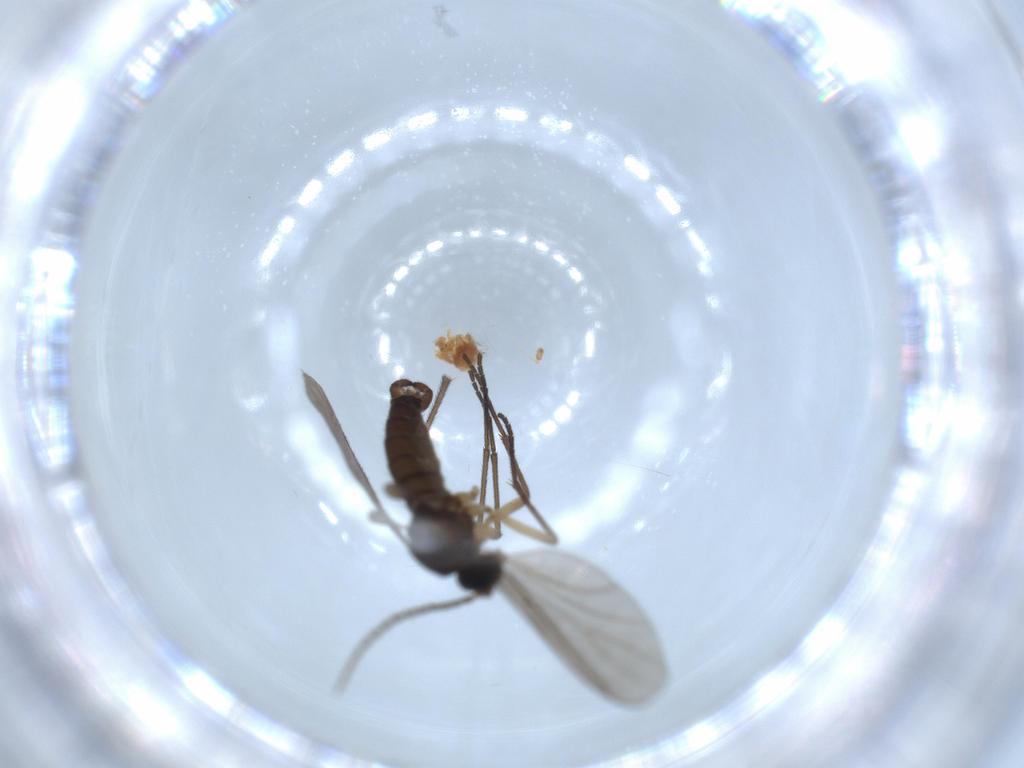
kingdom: Animalia
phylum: Arthropoda
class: Insecta
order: Diptera
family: Sciaridae
